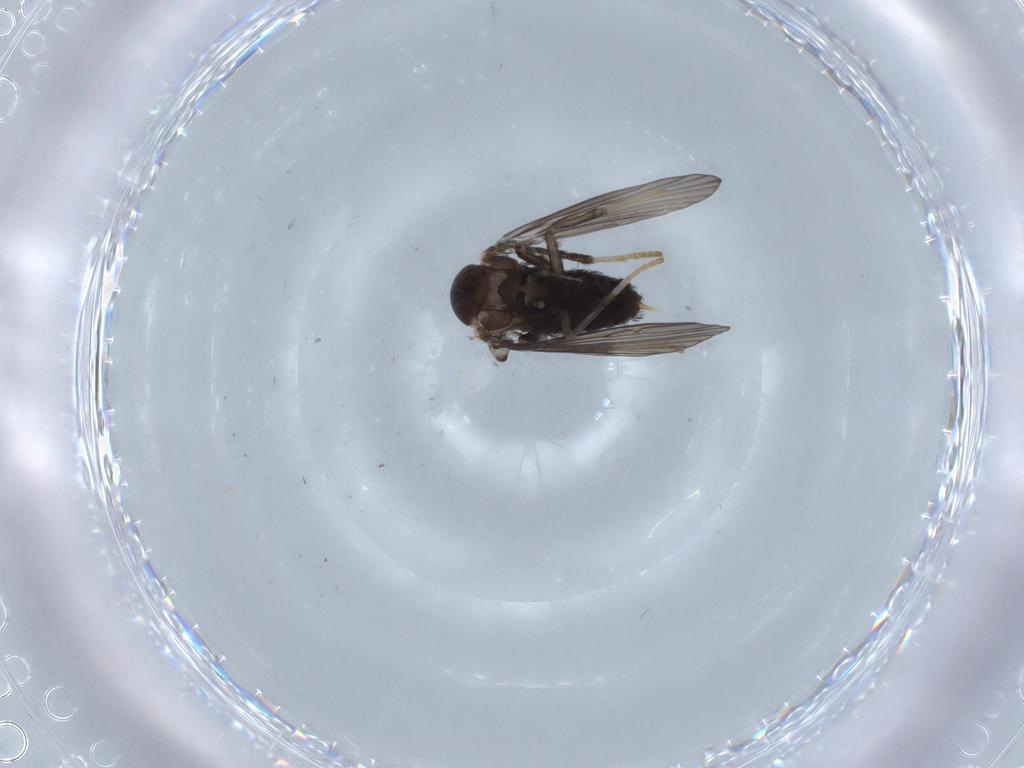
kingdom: Animalia
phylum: Arthropoda
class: Insecta
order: Diptera
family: Psychodidae
